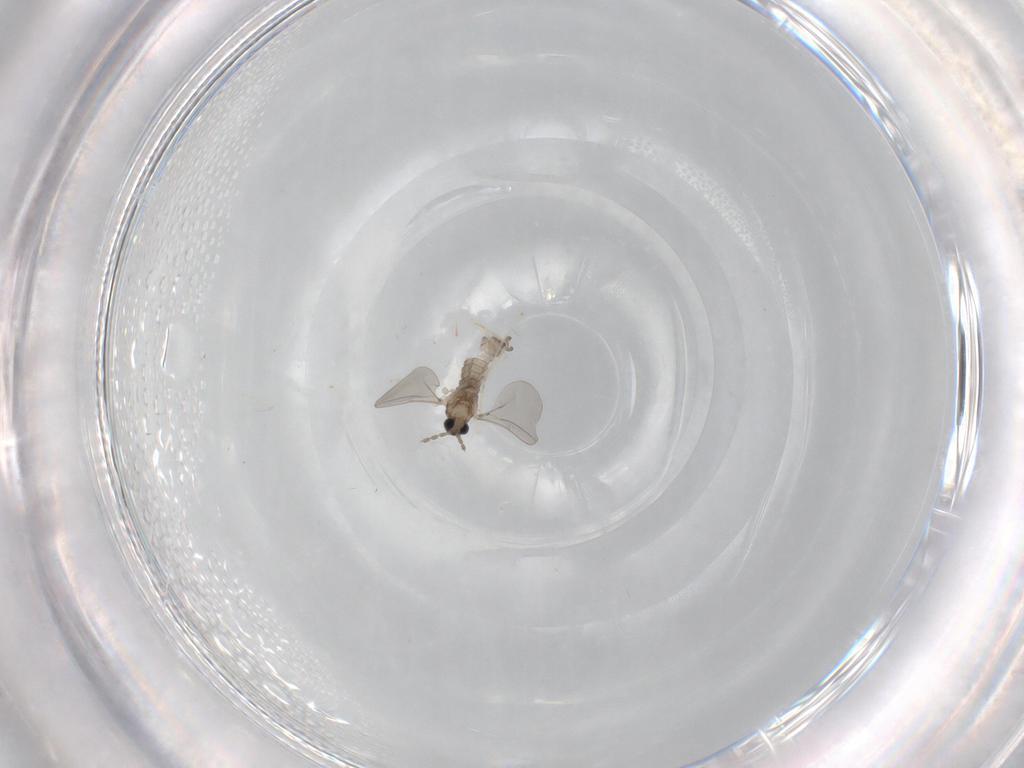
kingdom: Animalia
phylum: Arthropoda
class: Insecta
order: Diptera
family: Cecidomyiidae
